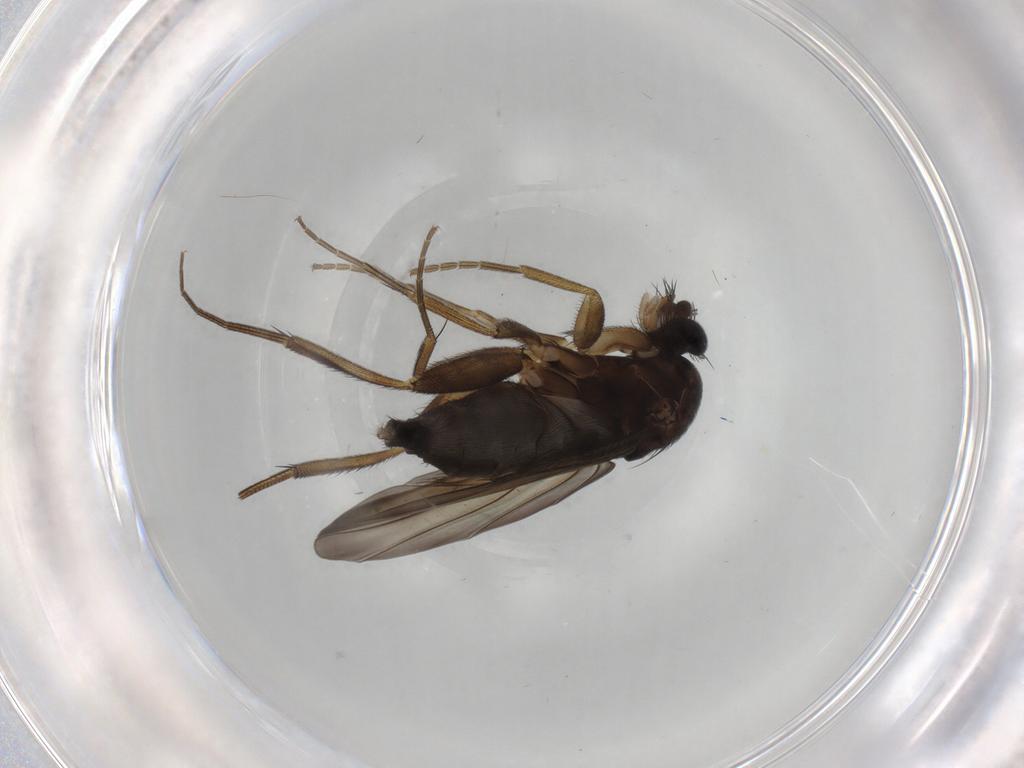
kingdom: Animalia
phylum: Arthropoda
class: Insecta
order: Diptera
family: Phoridae
